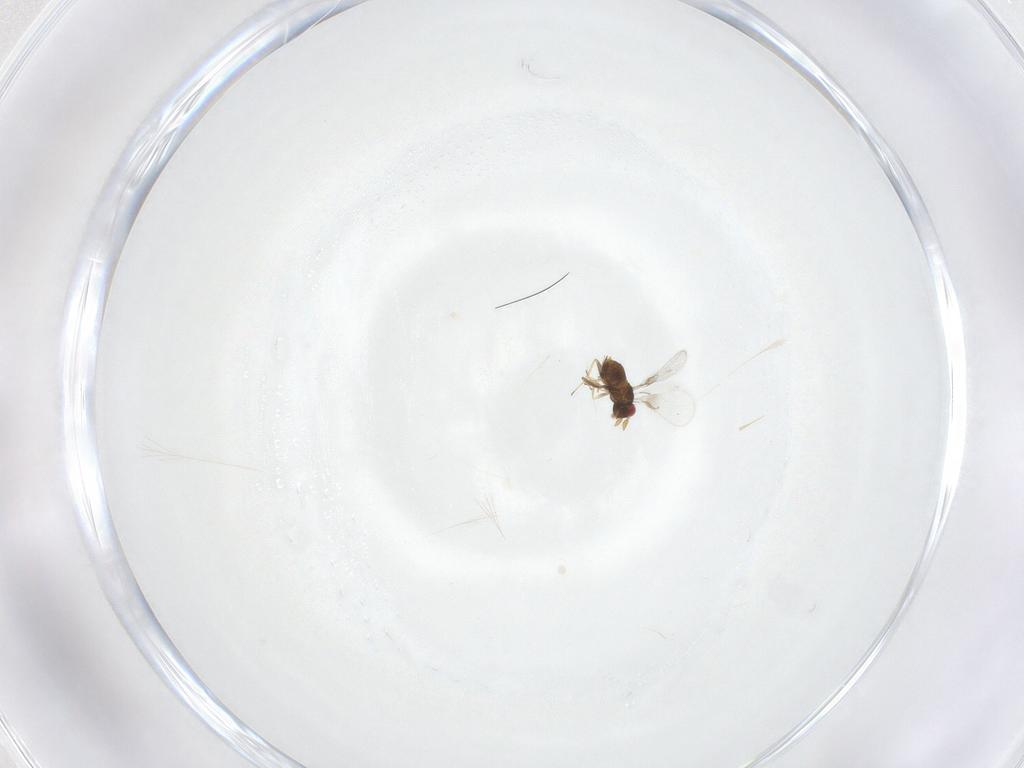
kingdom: Animalia
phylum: Arthropoda
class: Insecta
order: Hymenoptera
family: Trichogrammatidae
